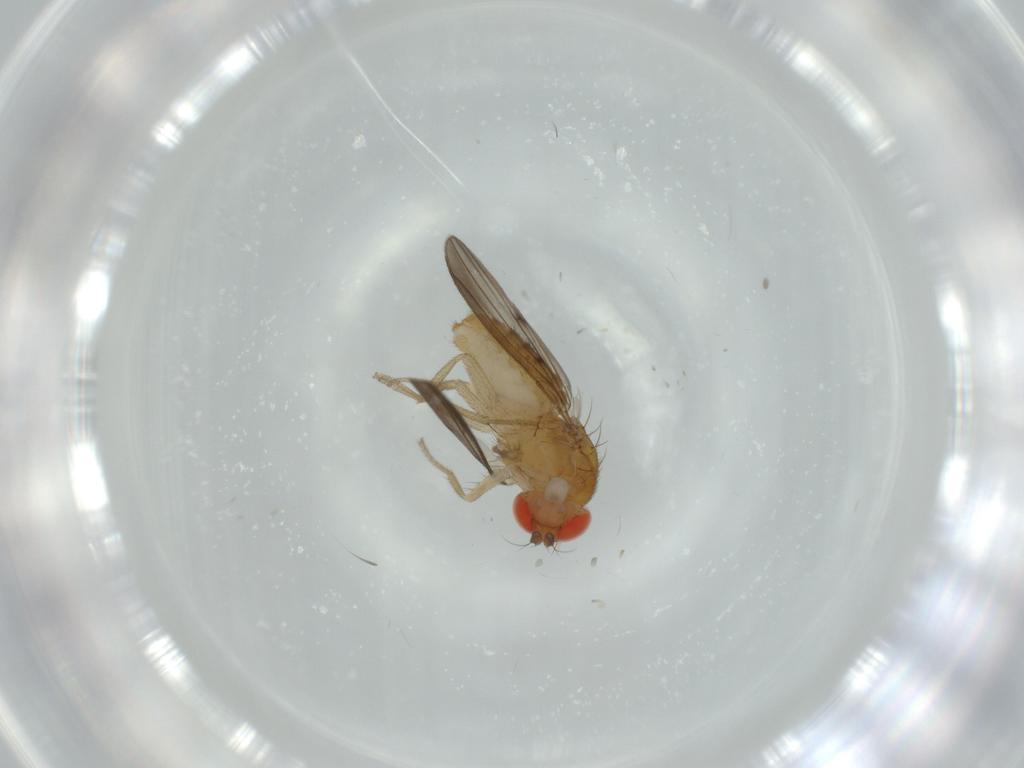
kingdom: Animalia
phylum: Arthropoda
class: Insecta
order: Diptera
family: Drosophilidae
